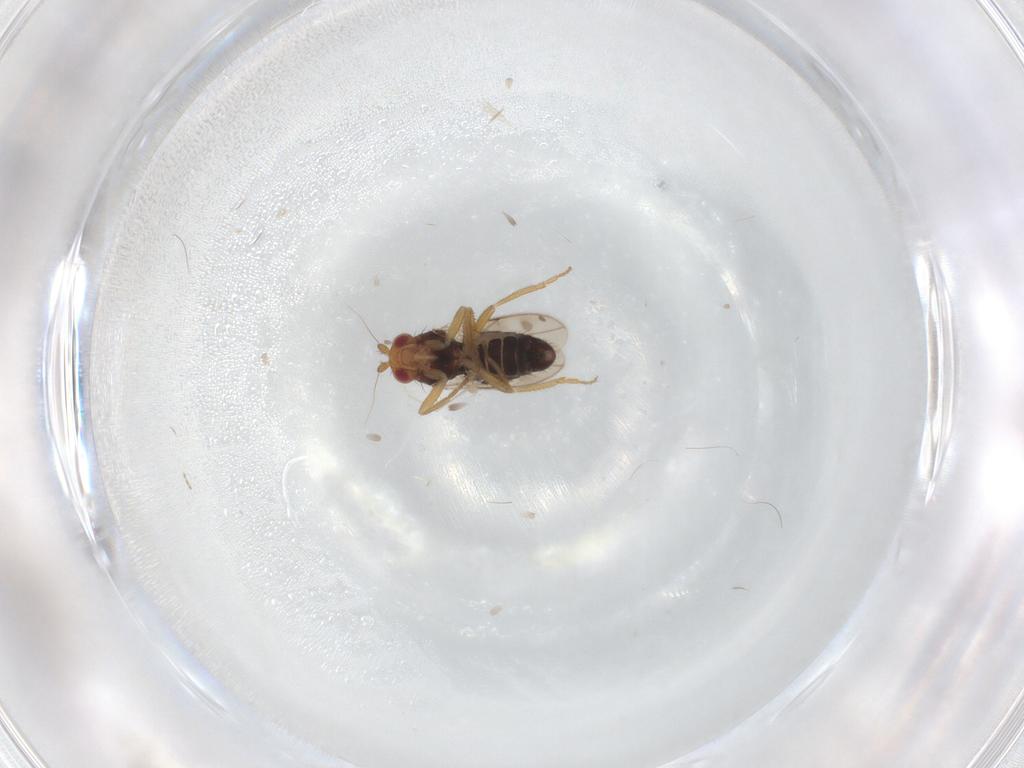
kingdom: Animalia
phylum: Arthropoda
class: Insecta
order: Diptera
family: Sphaeroceridae
